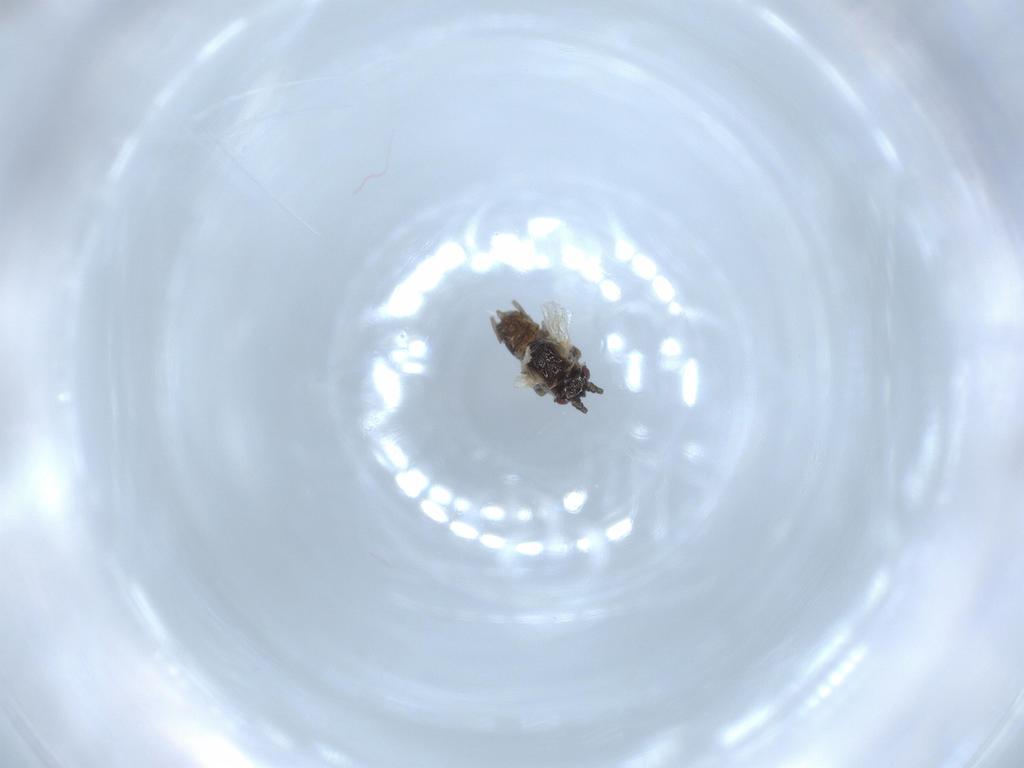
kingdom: Animalia
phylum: Arthropoda
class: Insecta
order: Hemiptera
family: Aphididae
